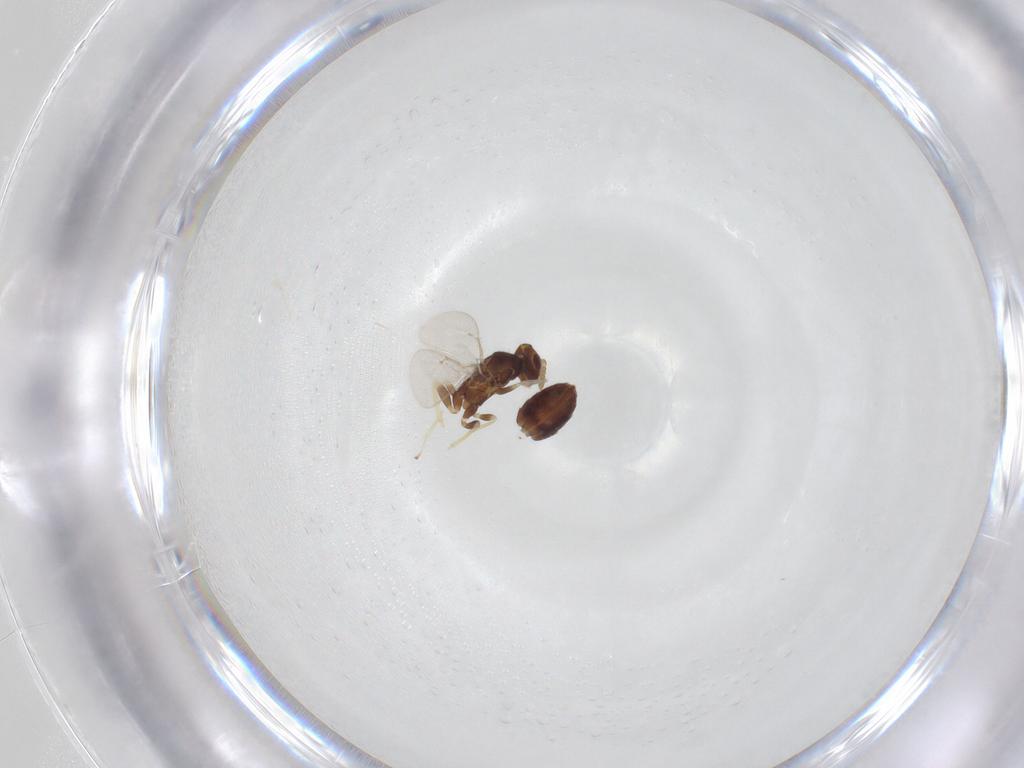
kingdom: Animalia
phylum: Arthropoda
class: Insecta
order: Hymenoptera
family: Eulophidae
